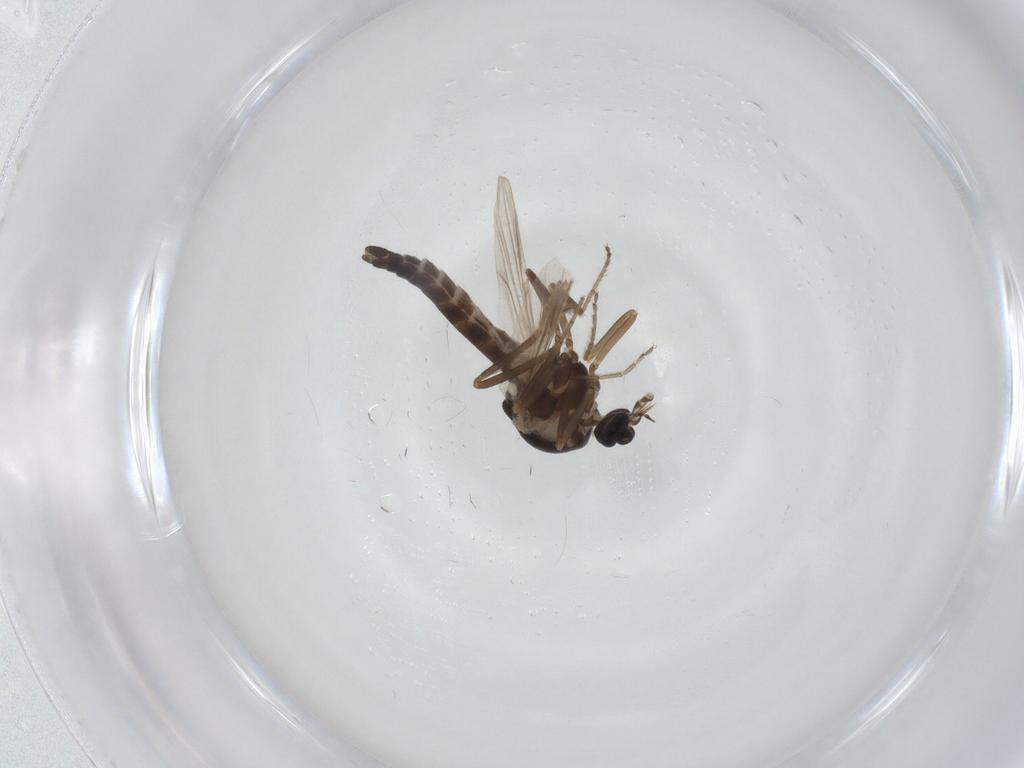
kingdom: Animalia
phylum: Arthropoda
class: Insecta
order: Diptera
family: Ceratopogonidae
